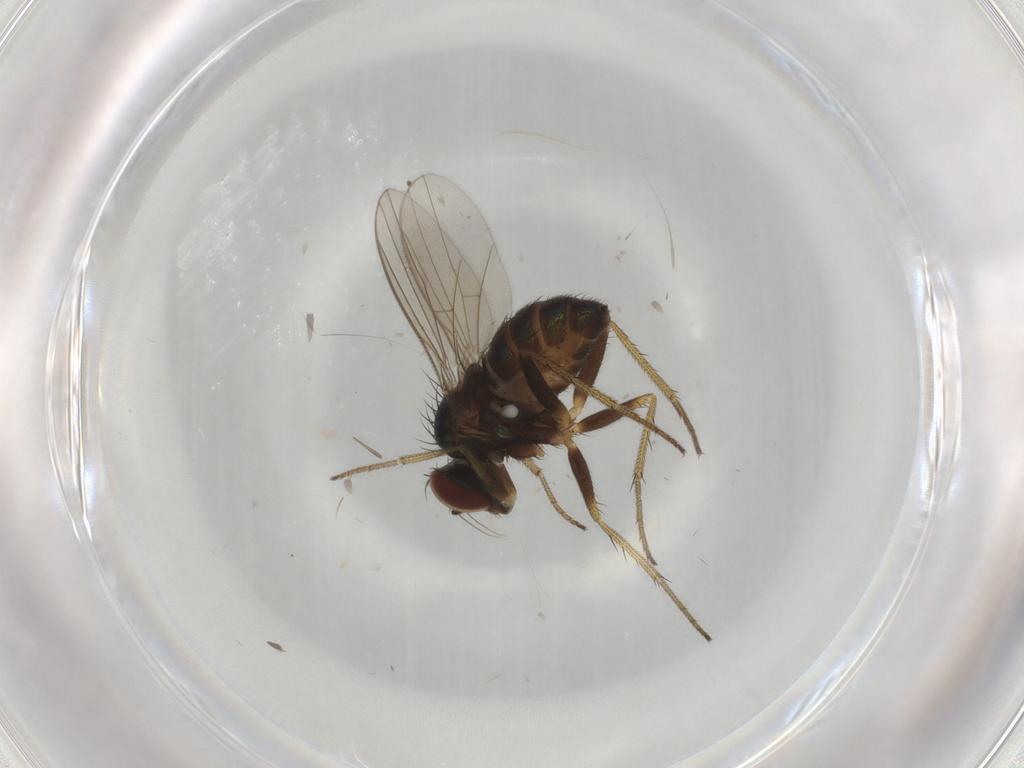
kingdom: Animalia
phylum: Arthropoda
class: Insecta
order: Diptera
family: Dolichopodidae
